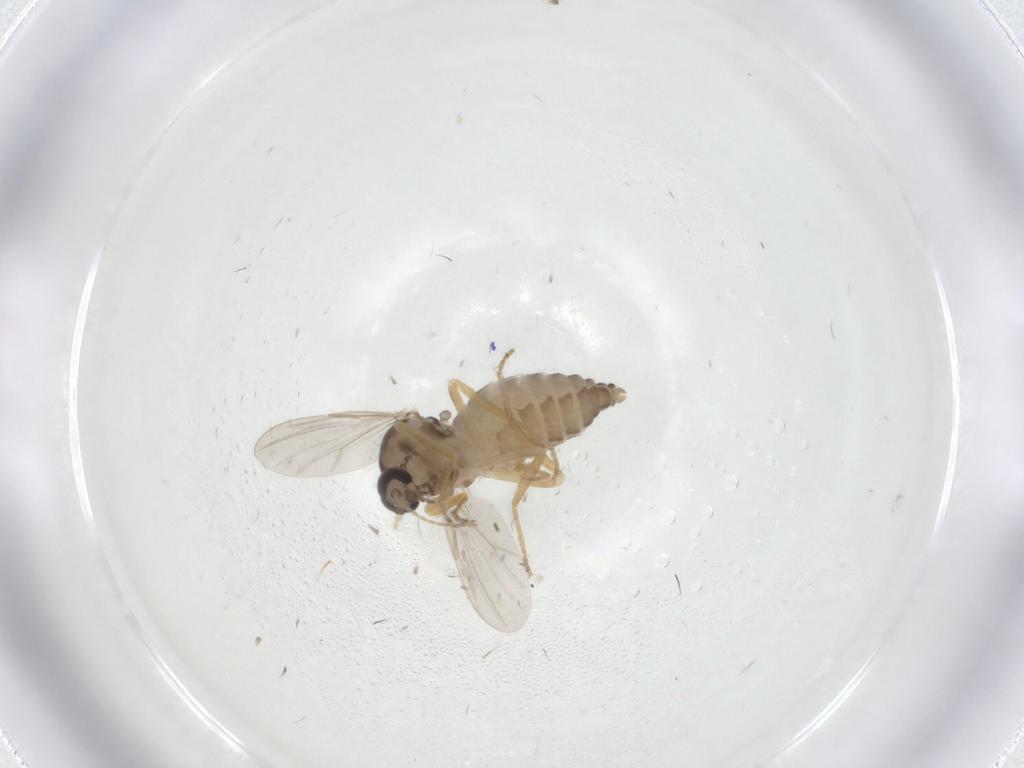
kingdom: Animalia
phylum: Arthropoda
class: Insecta
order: Diptera
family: Ceratopogonidae
